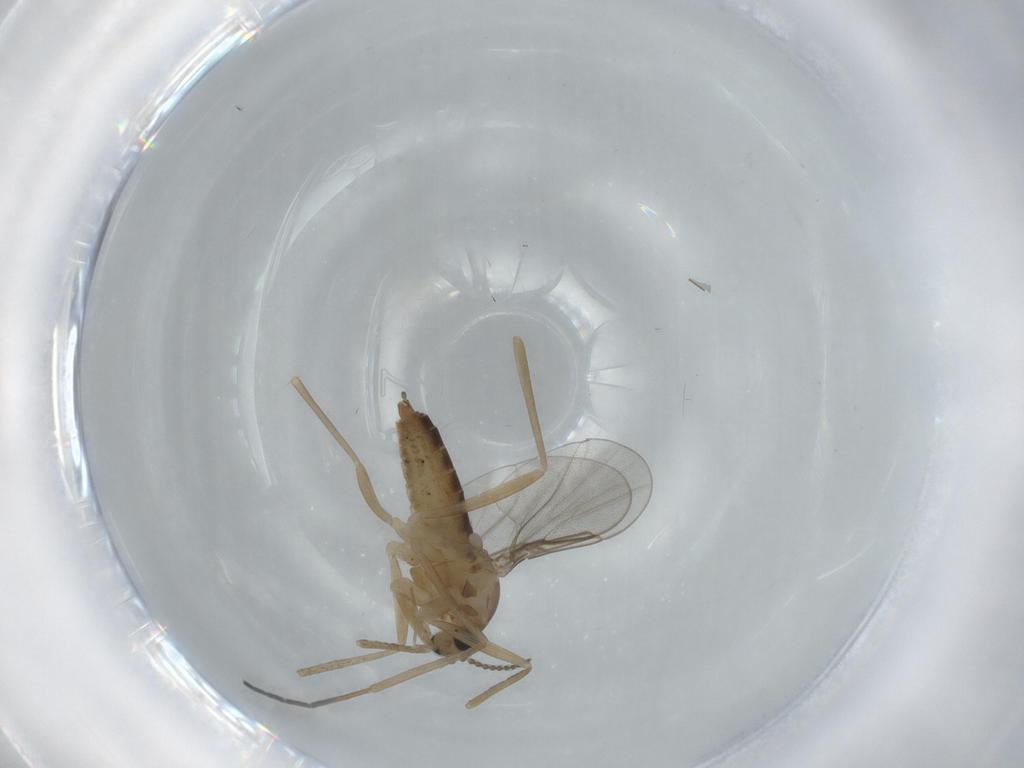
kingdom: Animalia
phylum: Arthropoda
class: Insecta
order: Diptera
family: Cecidomyiidae
